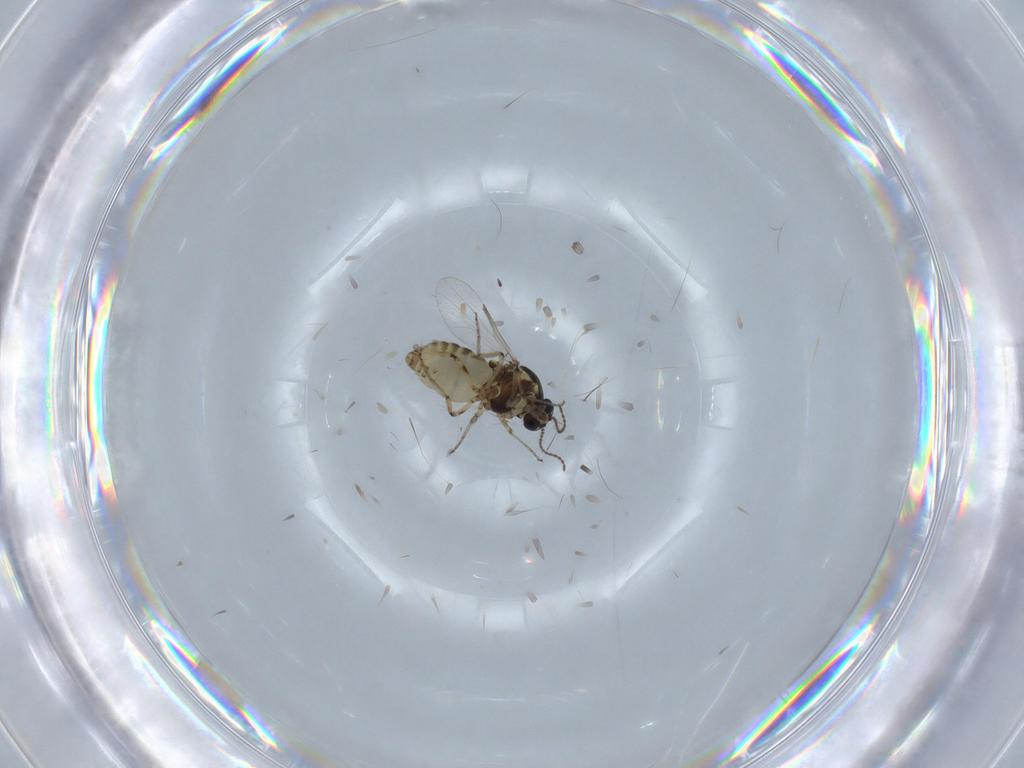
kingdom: Animalia
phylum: Arthropoda
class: Insecta
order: Diptera
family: Ceratopogonidae
